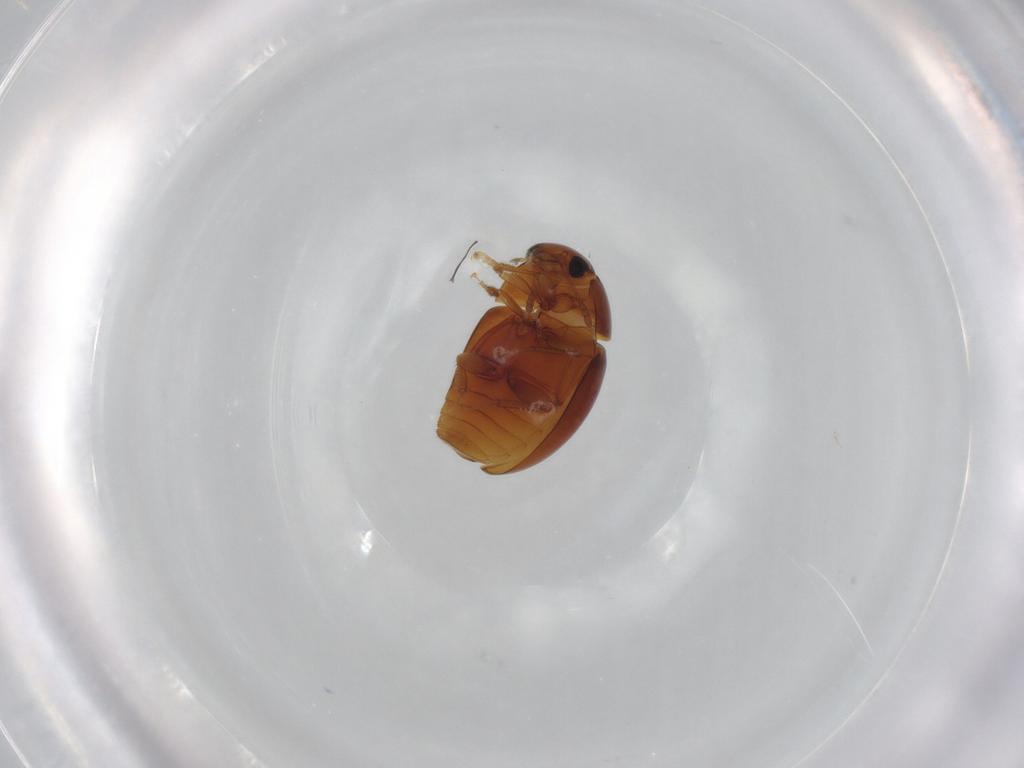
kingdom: Animalia
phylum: Arthropoda
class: Insecta
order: Coleoptera
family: Phalacridae
